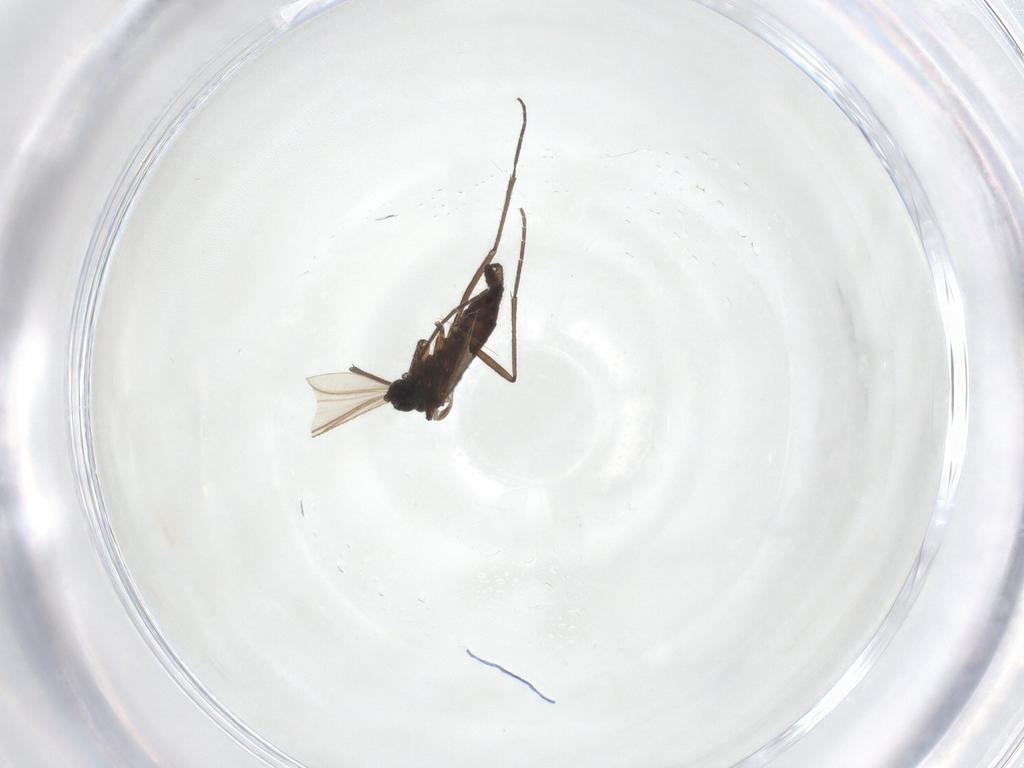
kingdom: Animalia
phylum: Arthropoda
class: Insecta
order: Diptera
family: Sciaridae
